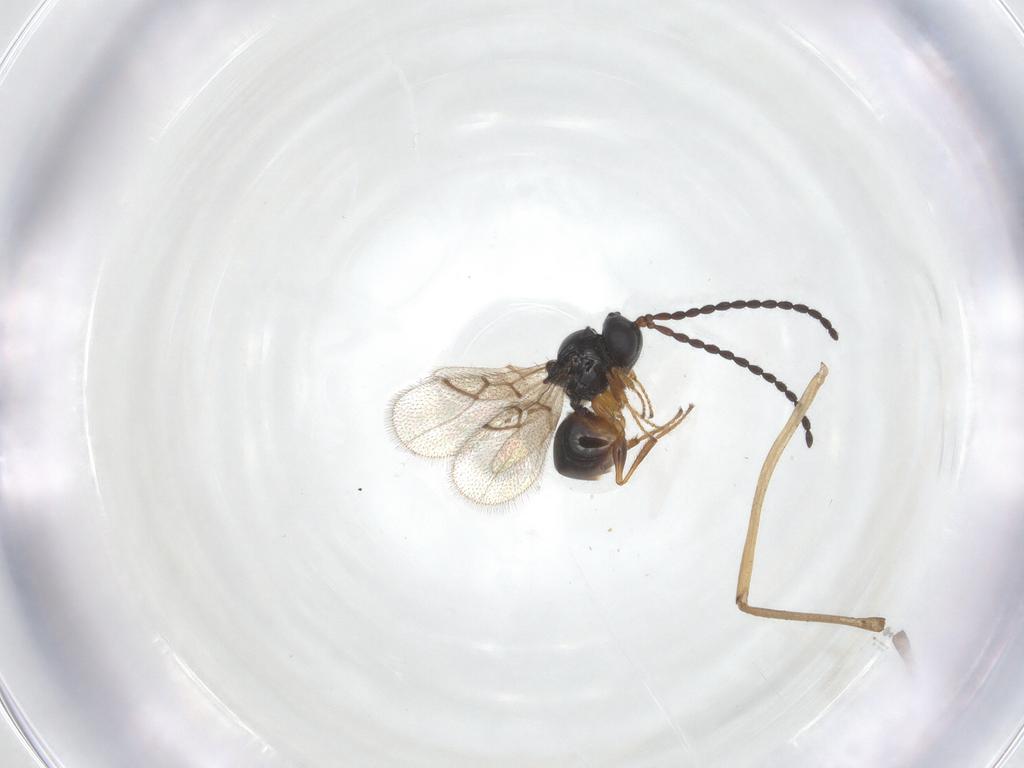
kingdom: Animalia
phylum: Arthropoda
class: Insecta
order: Hymenoptera
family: Figitidae
